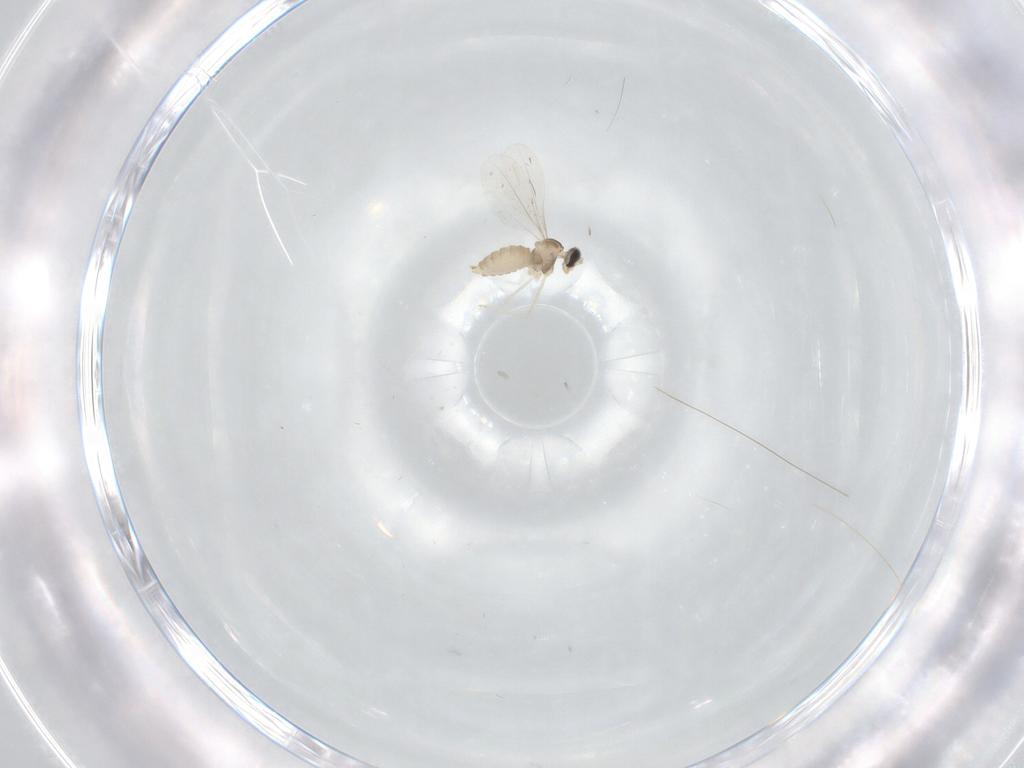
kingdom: Animalia
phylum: Arthropoda
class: Insecta
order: Diptera
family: Cecidomyiidae
